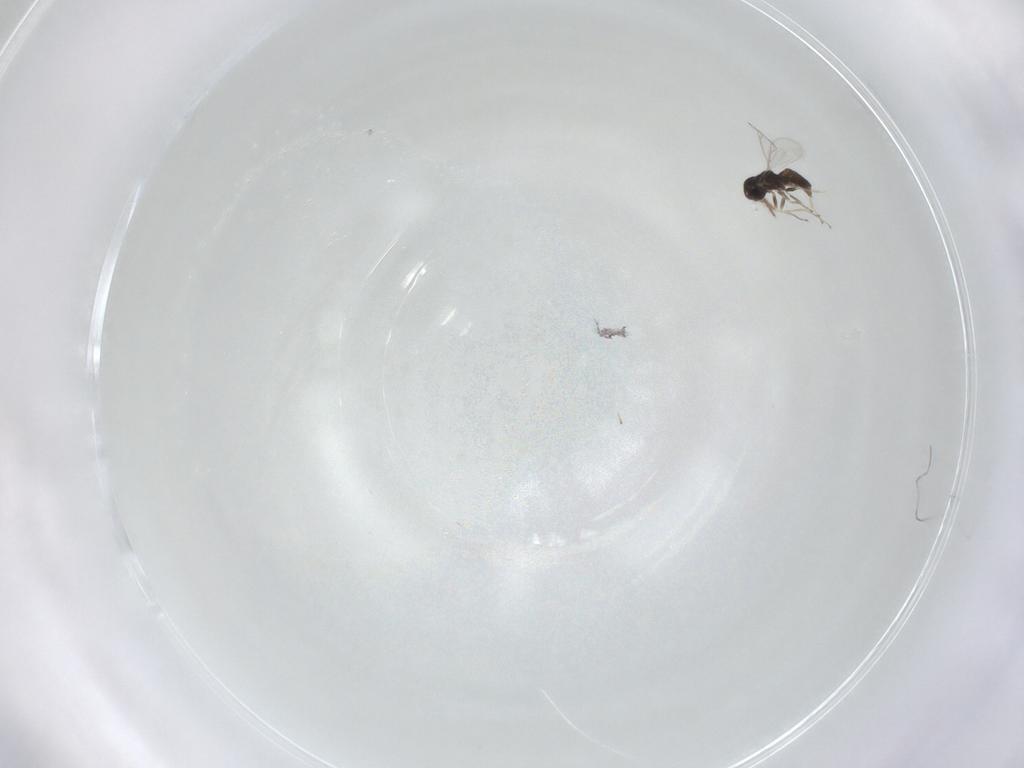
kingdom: Animalia
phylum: Arthropoda
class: Insecta
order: Hymenoptera
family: Eulophidae
